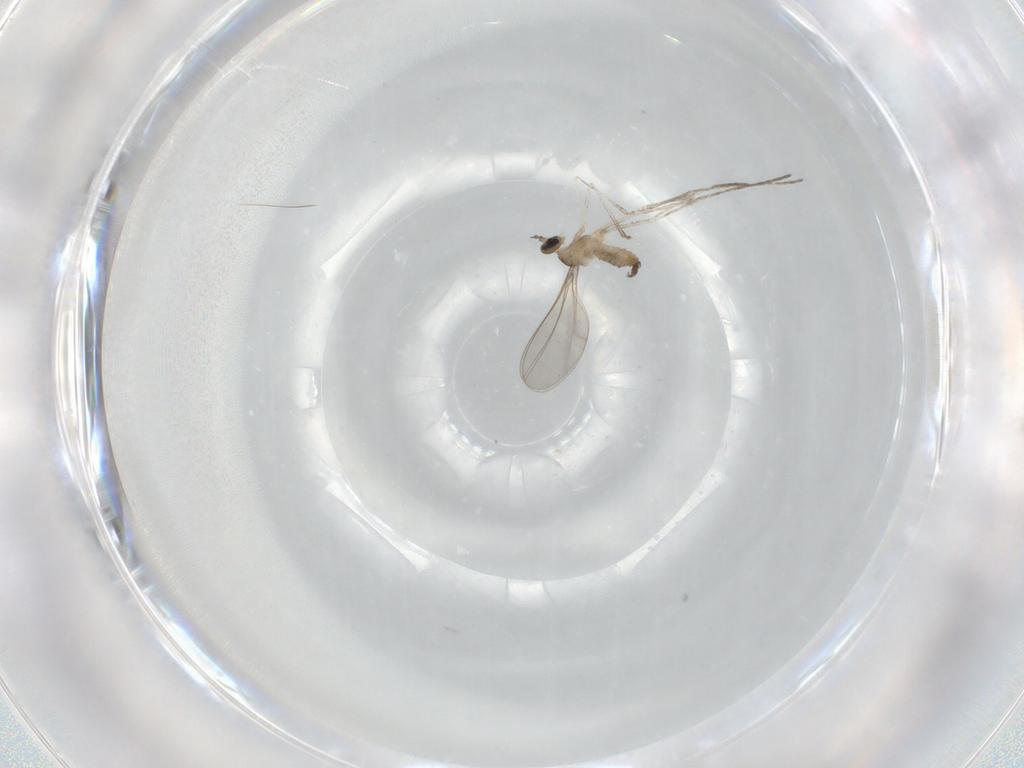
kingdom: Animalia
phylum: Arthropoda
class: Insecta
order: Diptera
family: Cecidomyiidae
